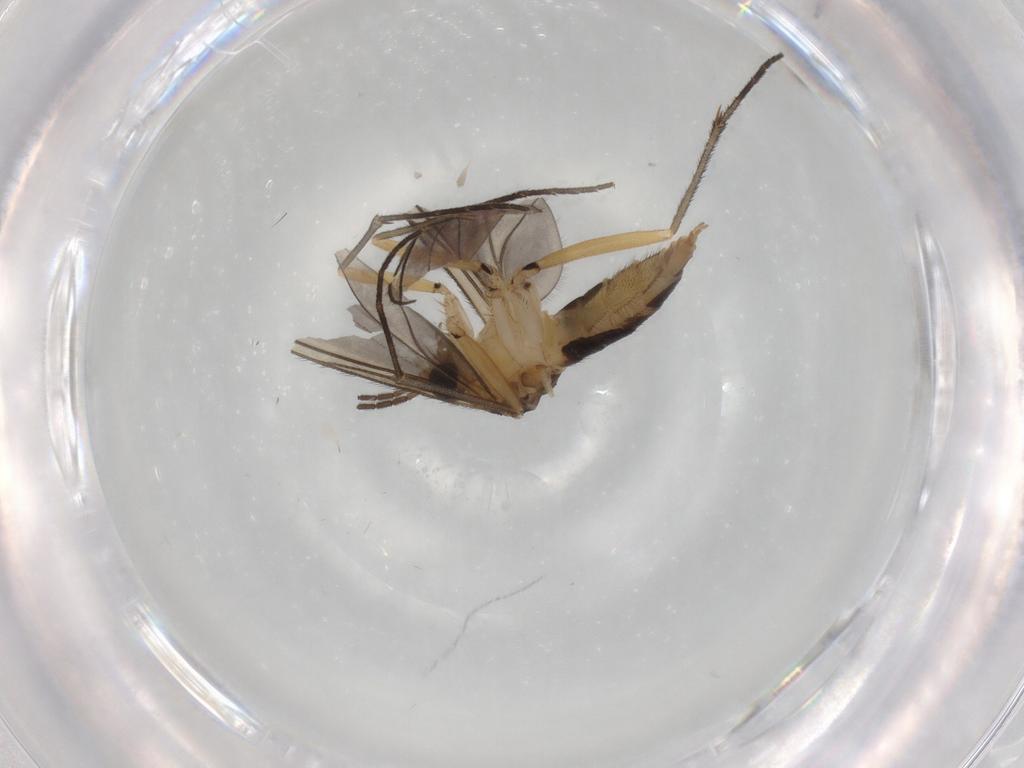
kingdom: Animalia
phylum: Arthropoda
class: Insecta
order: Diptera
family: Sciaridae
